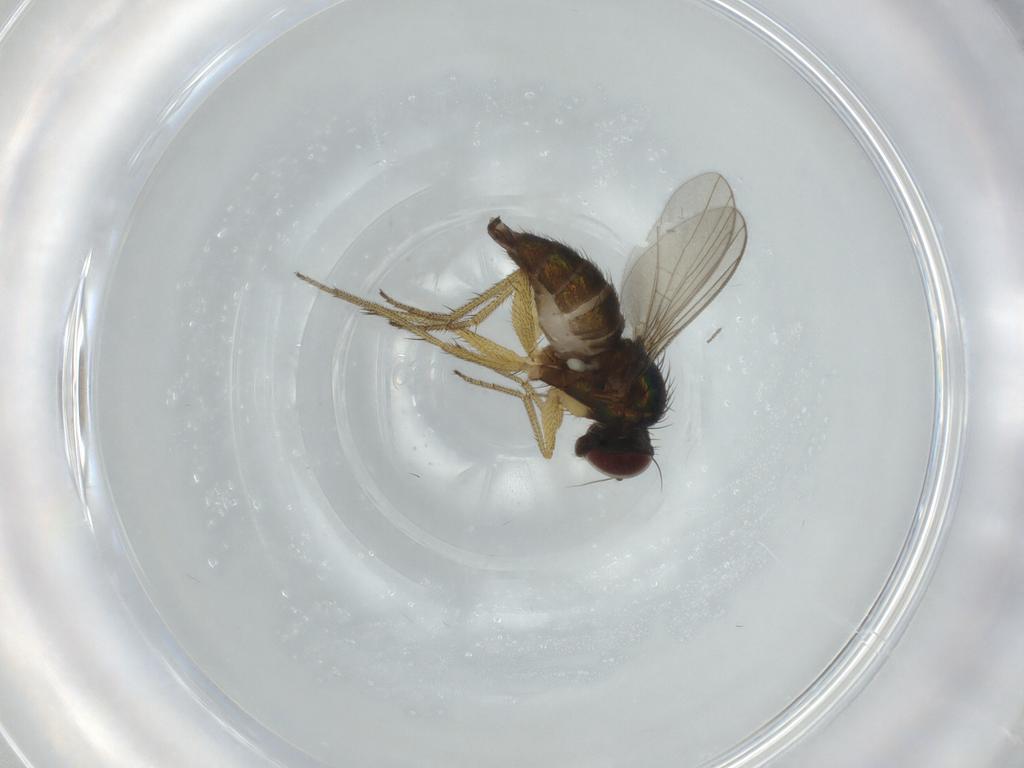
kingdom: Animalia
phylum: Arthropoda
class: Insecta
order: Diptera
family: Dolichopodidae
